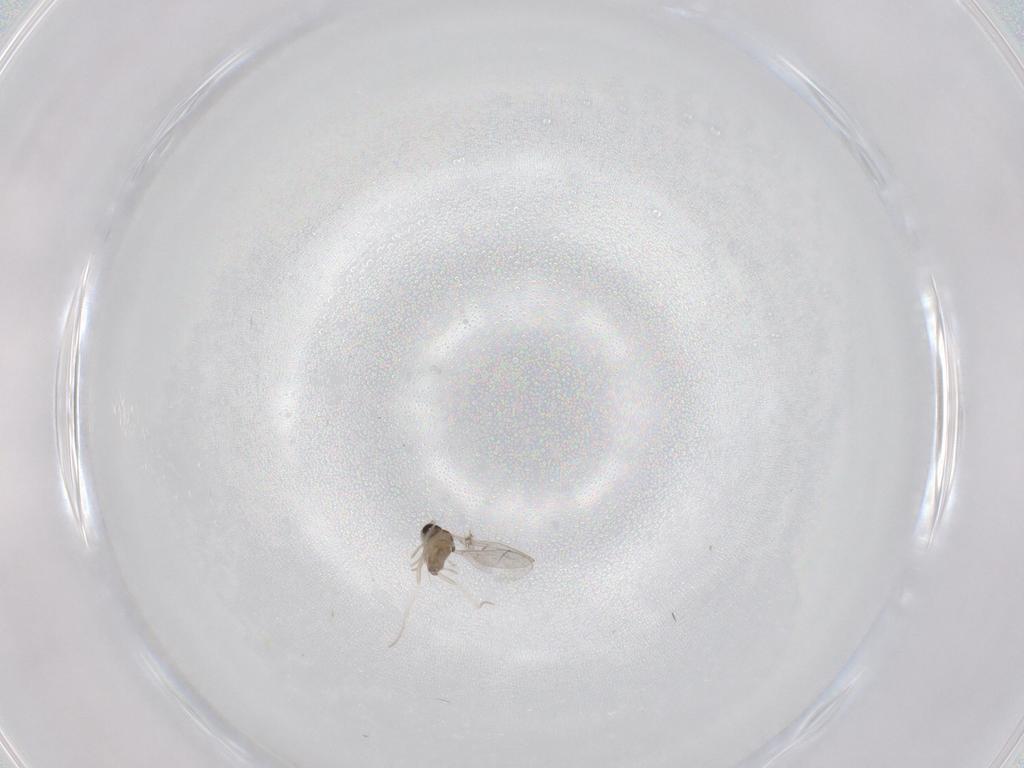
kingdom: Animalia
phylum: Arthropoda
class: Insecta
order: Diptera
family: Cecidomyiidae
